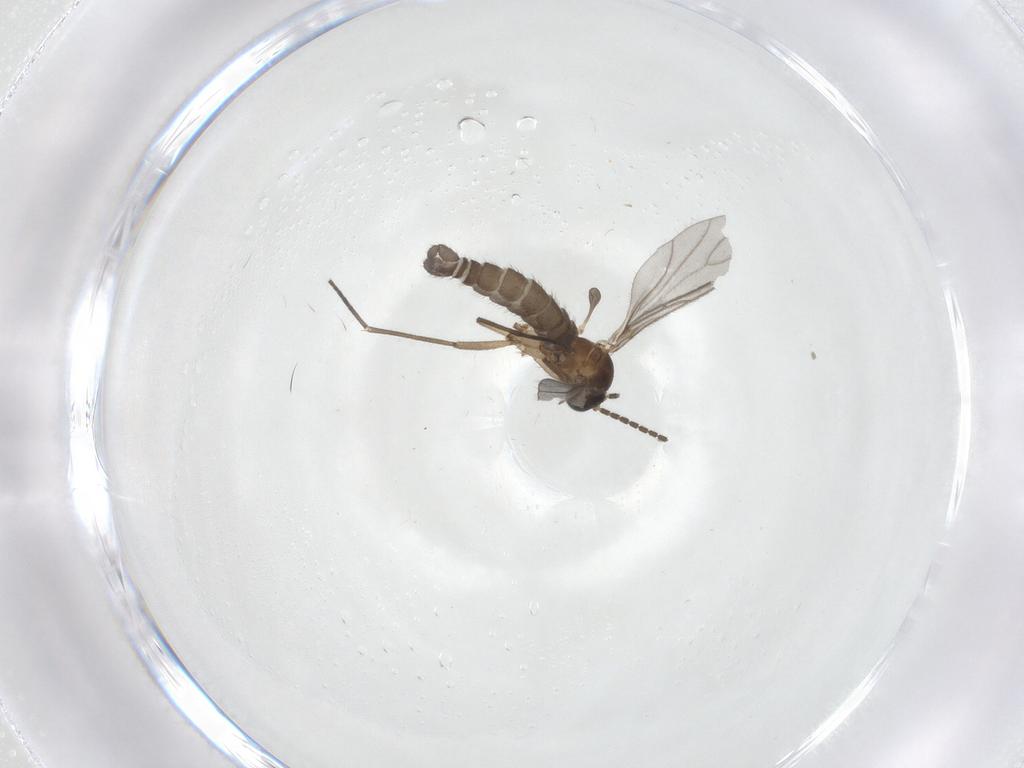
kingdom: Animalia
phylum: Arthropoda
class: Insecta
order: Diptera
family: Sciaridae
